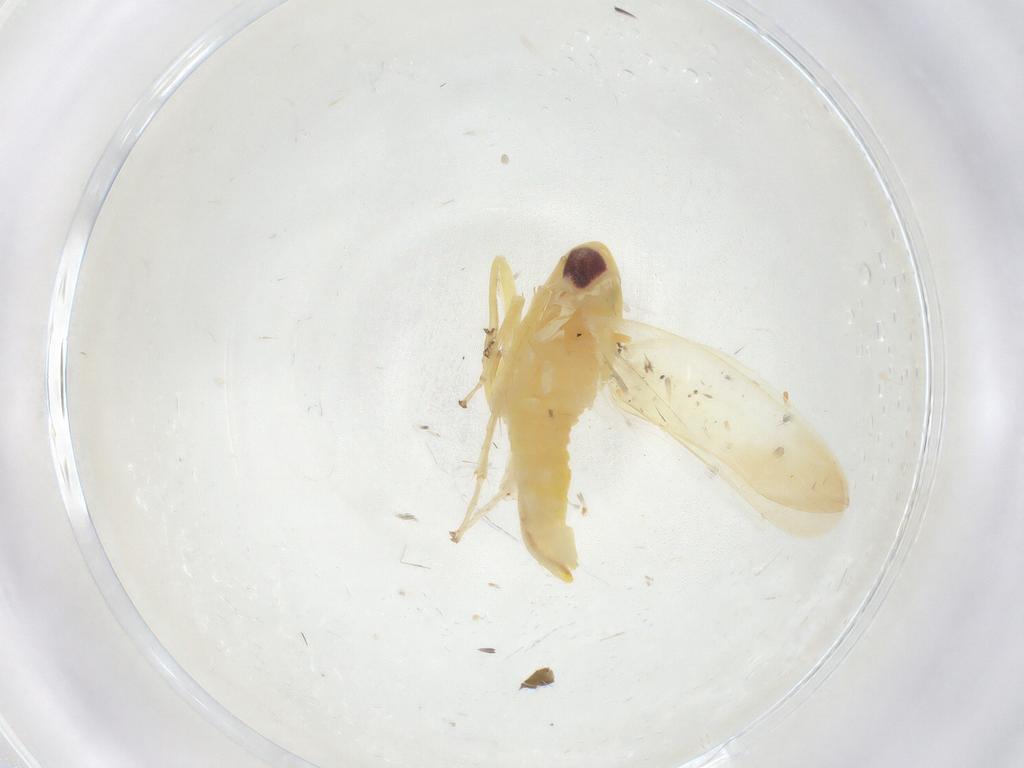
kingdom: Animalia
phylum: Arthropoda
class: Insecta
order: Hemiptera
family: Cicadellidae
